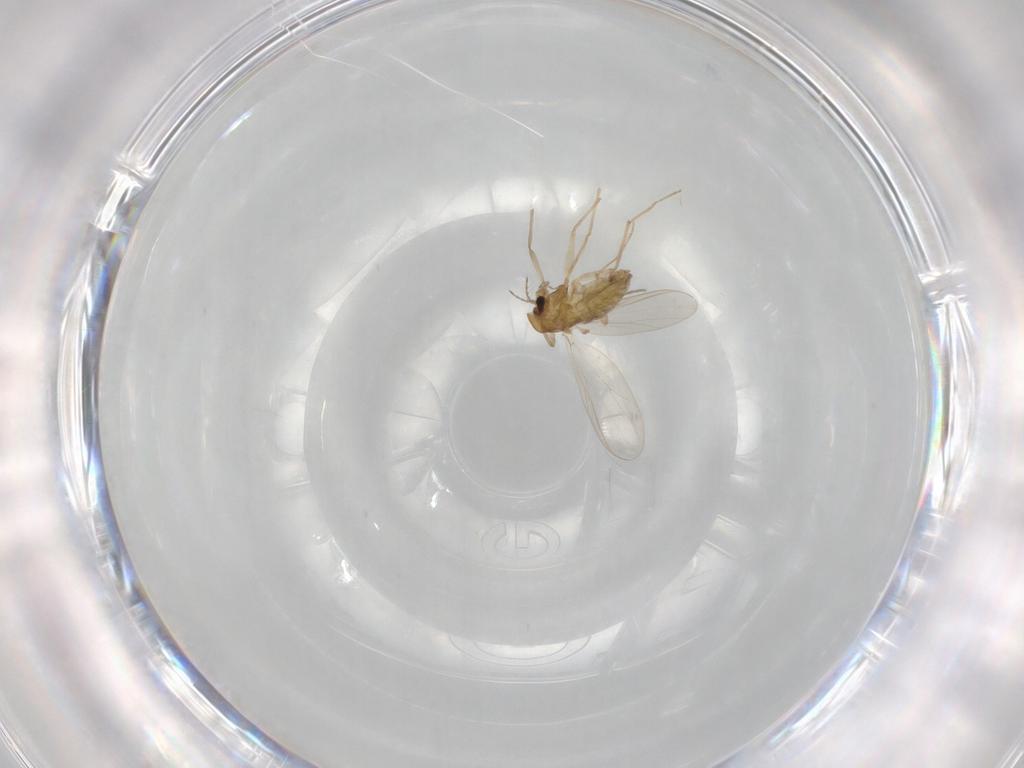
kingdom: Animalia
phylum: Arthropoda
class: Insecta
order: Diptera
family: Chironomidae
